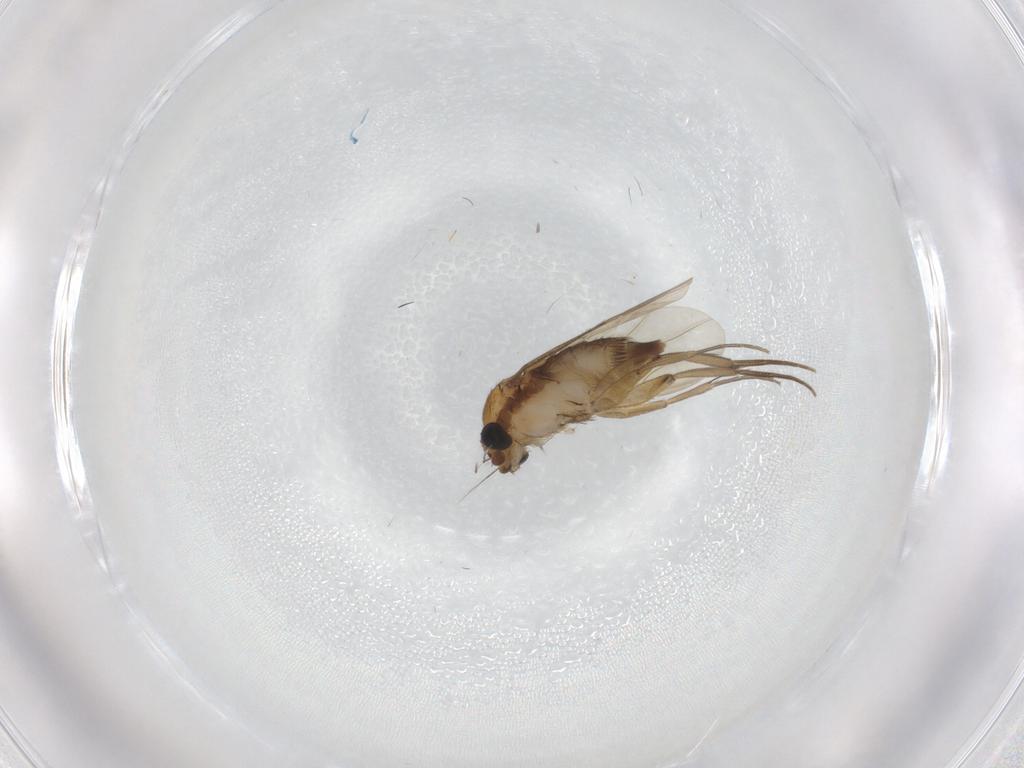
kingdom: Animalia
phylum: Arthropoda
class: Insecta
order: Diptera
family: Phoridae
